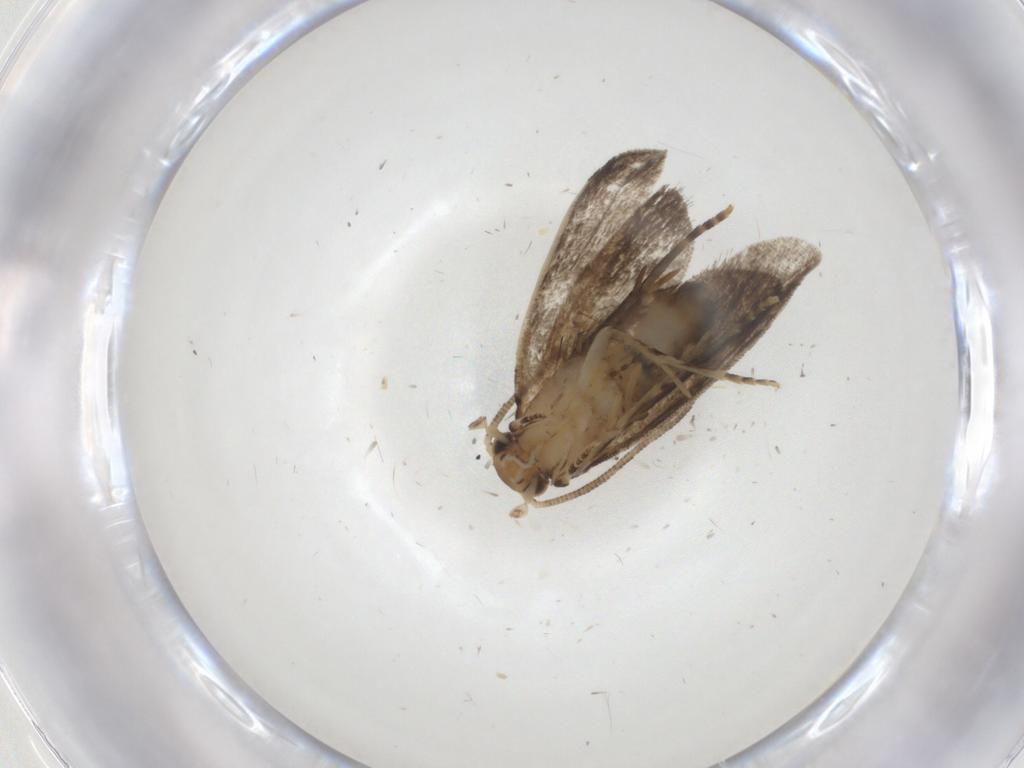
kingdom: Animalia
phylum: Arthropoda
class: Insecta
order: Lepidoptera
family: Dryadaulidae
